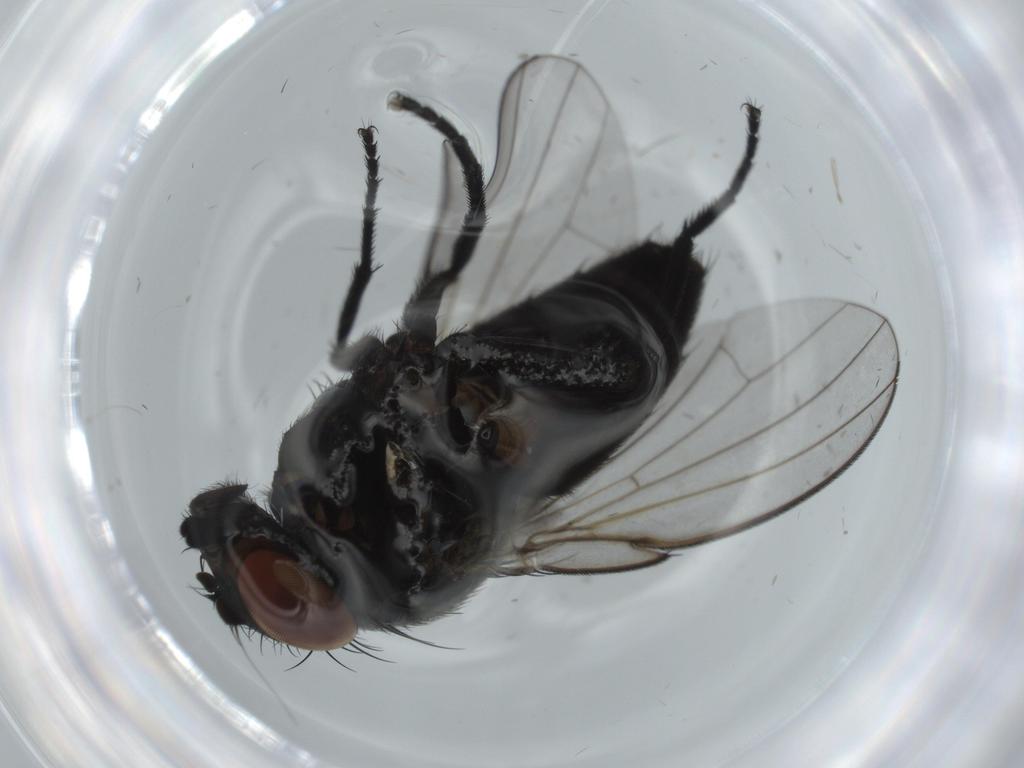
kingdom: Animalia
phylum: Arthropoda
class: Insecta
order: Diptera
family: Milichiidae
